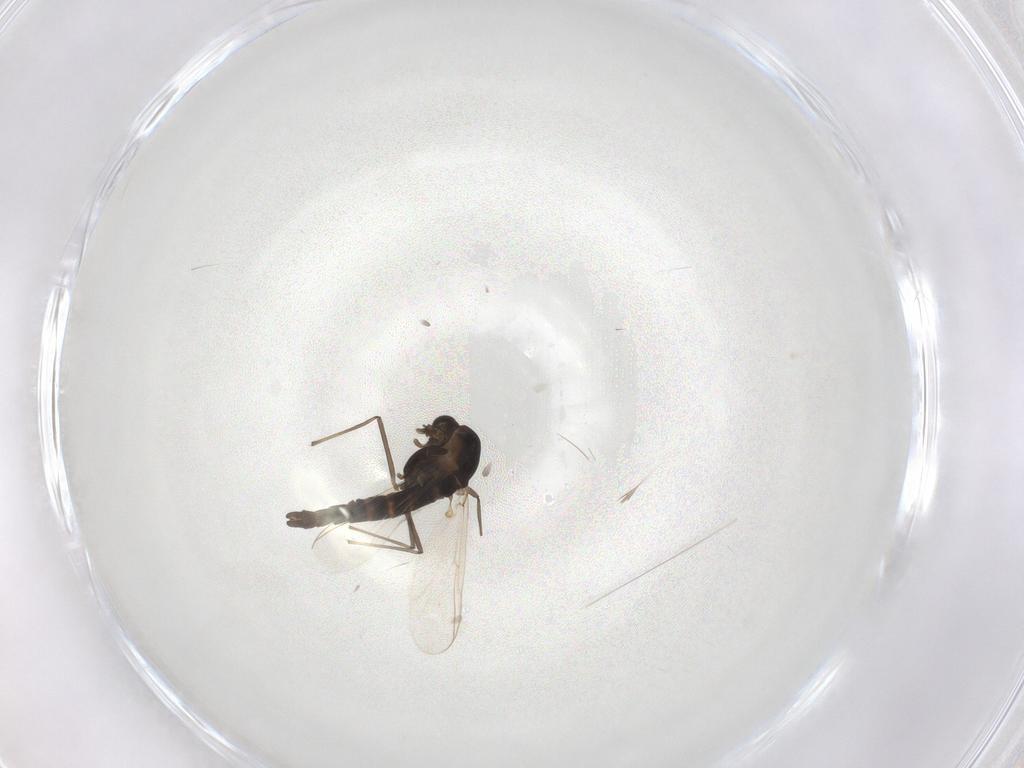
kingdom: Animalia
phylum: Arthropoda
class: Insecta
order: Diptera
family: Chironomidae
